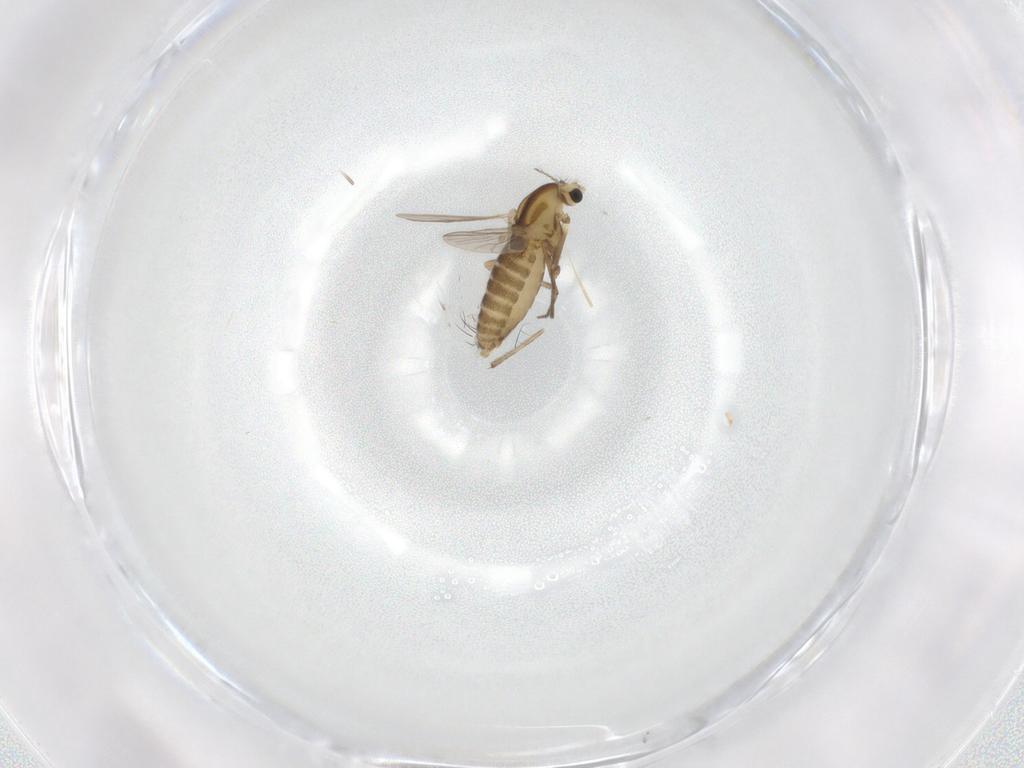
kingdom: Animalia
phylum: Arthropoda
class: Insecta
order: Diptera
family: Chironomidae
